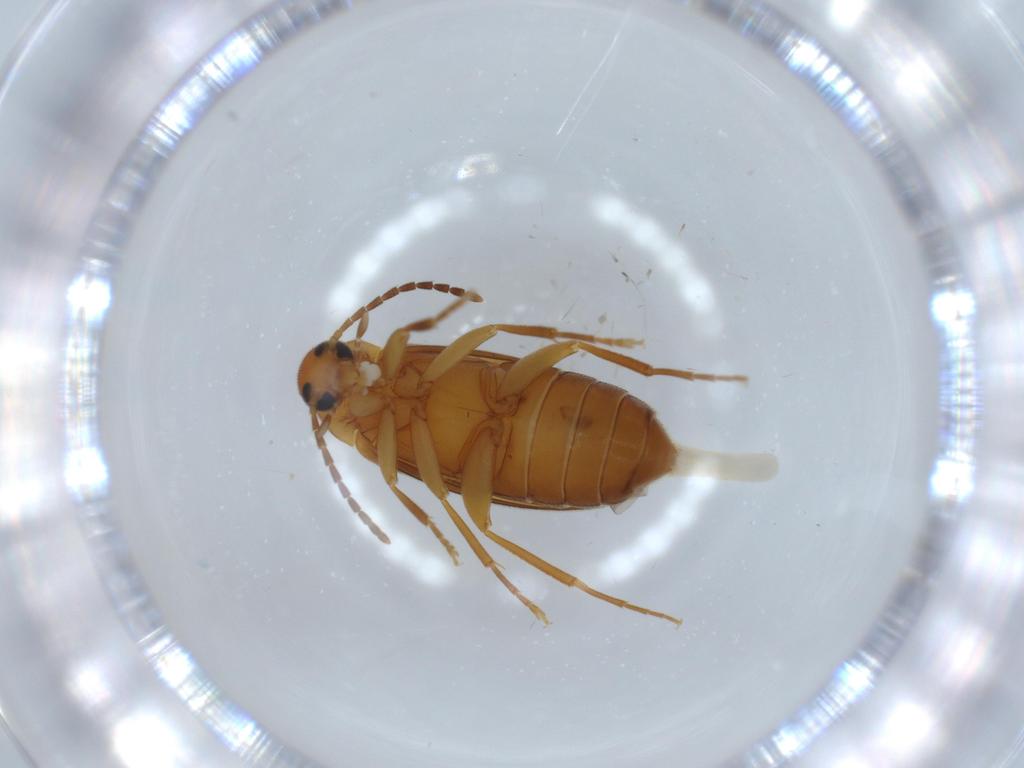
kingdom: Animalia
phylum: Arthropoda
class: Insecta
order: Coleoptera
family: Scraptiidae
